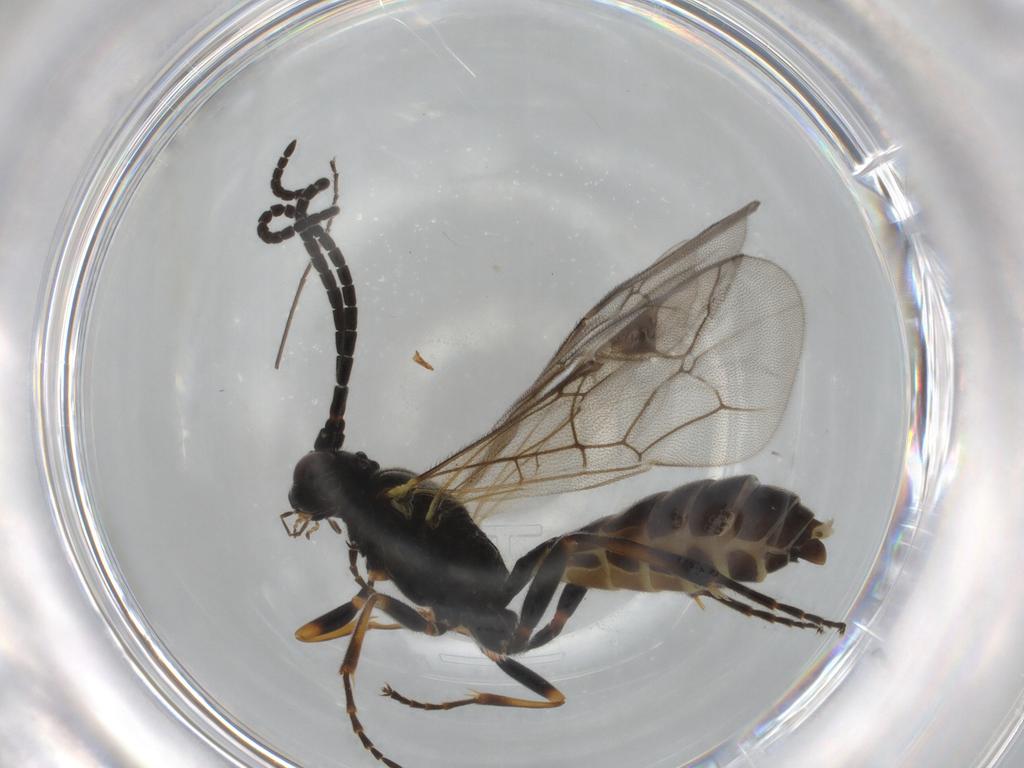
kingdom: Animalia
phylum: Arthropoda
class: Insecta
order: Hymenoptera
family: Ichneumonidae
